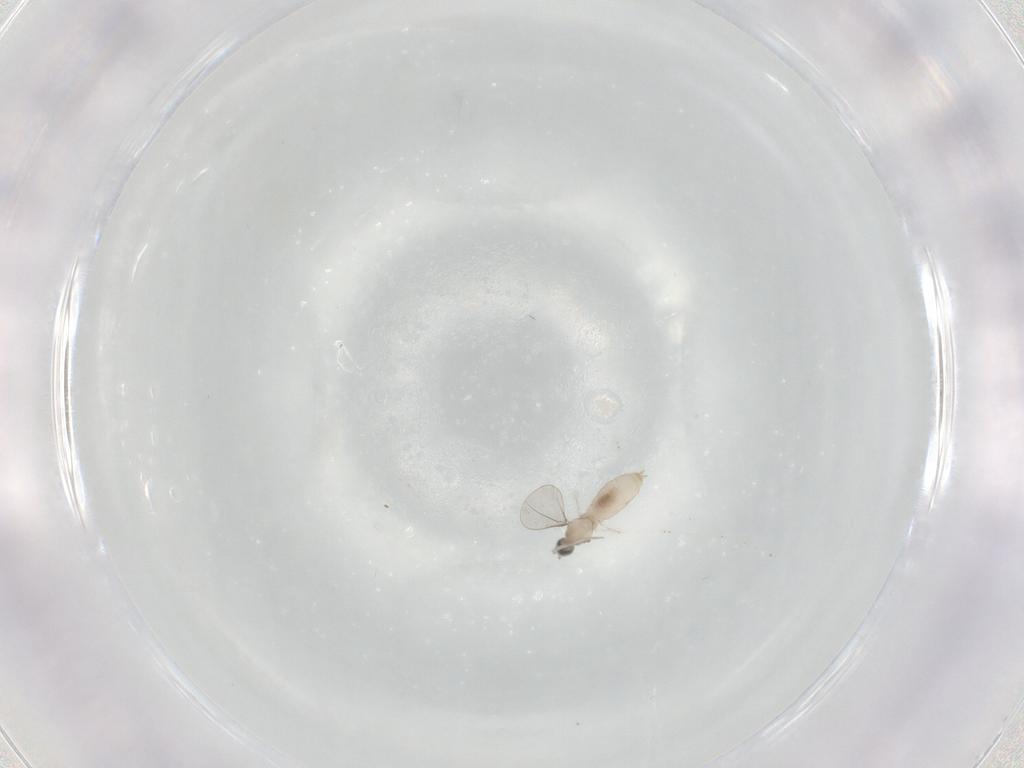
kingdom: Animalia
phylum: Arthropoda
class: Insecta
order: Diptera
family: Cecidomyiidae
